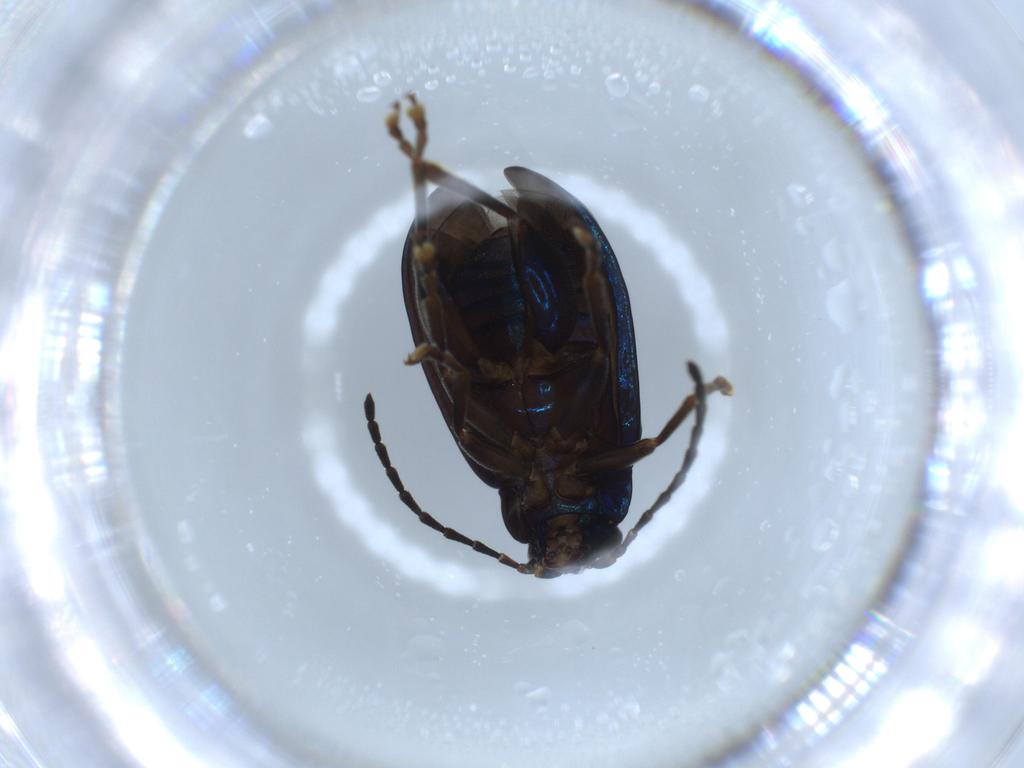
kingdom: Animalia
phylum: Arthropoda
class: Insecta
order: Coleoptera
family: Chrysomelidae
